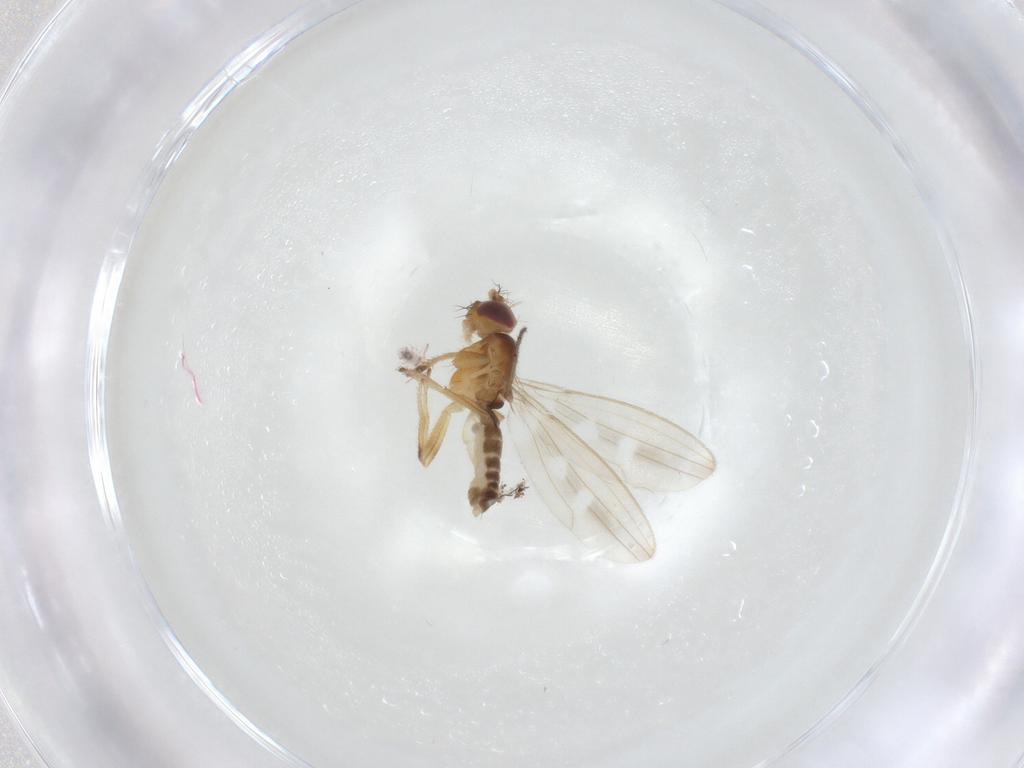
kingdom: Animalia
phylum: Arthropoda
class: Insecta
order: Diptera
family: Periscelididae
